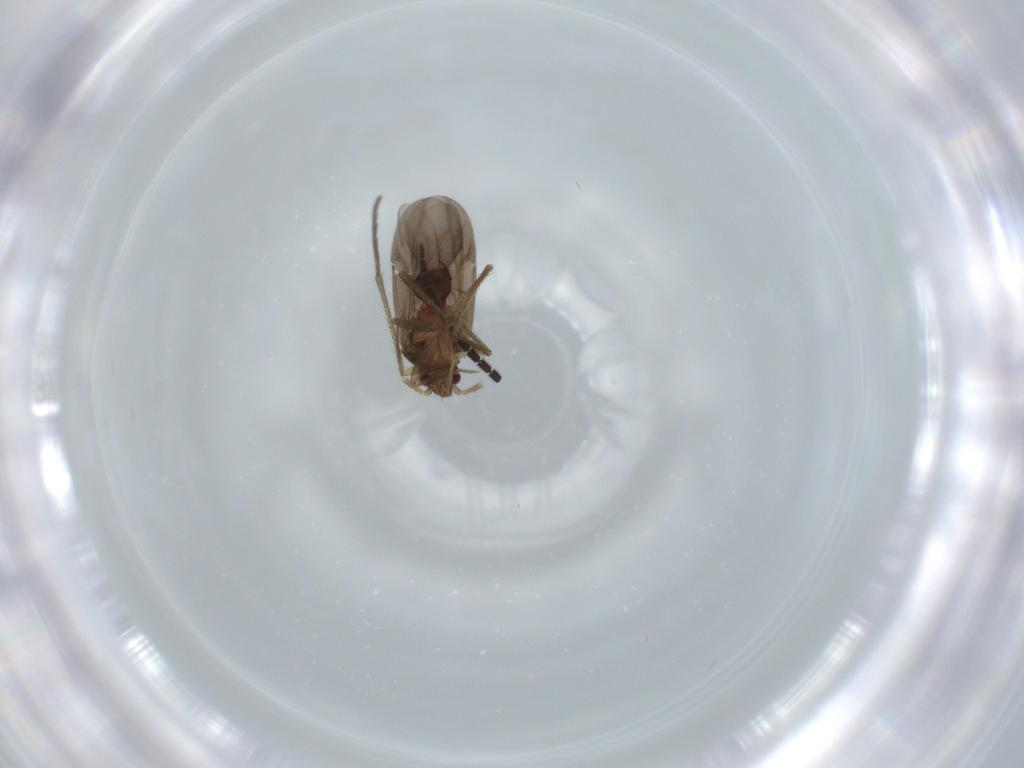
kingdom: Animalia
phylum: Arthropoda
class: Insecta
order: Hemiptera
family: Ceratocombidae
